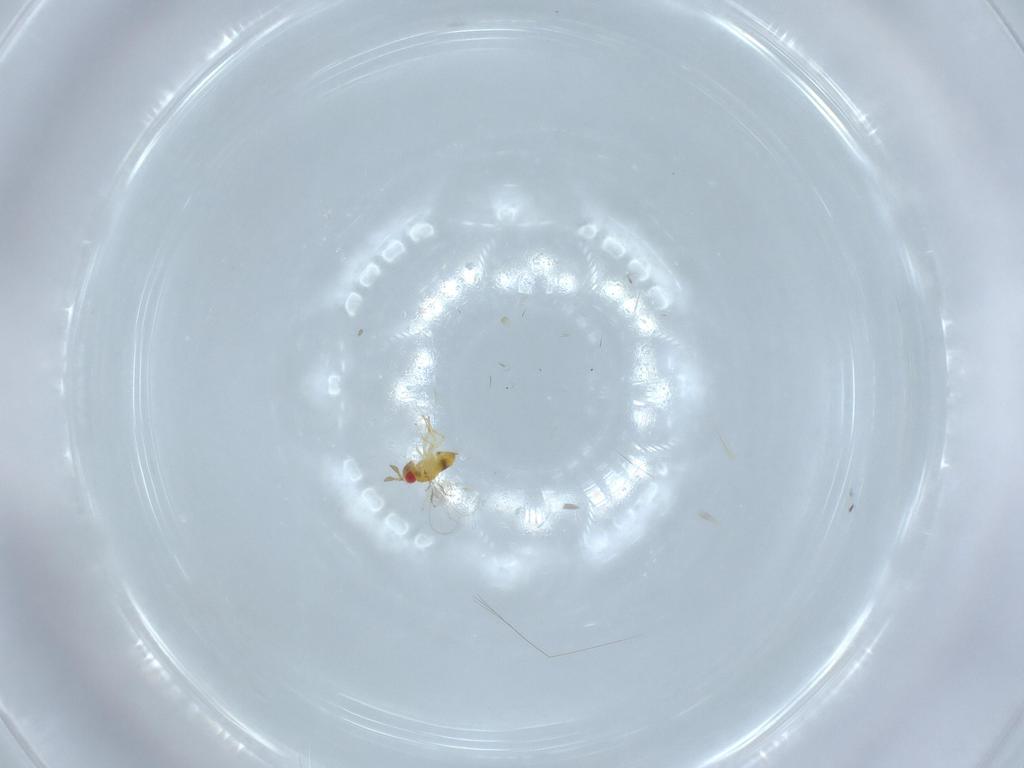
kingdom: Animalia
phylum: Arthropoda
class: Insecta
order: Hymenoptera
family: Trichogrammatidae
